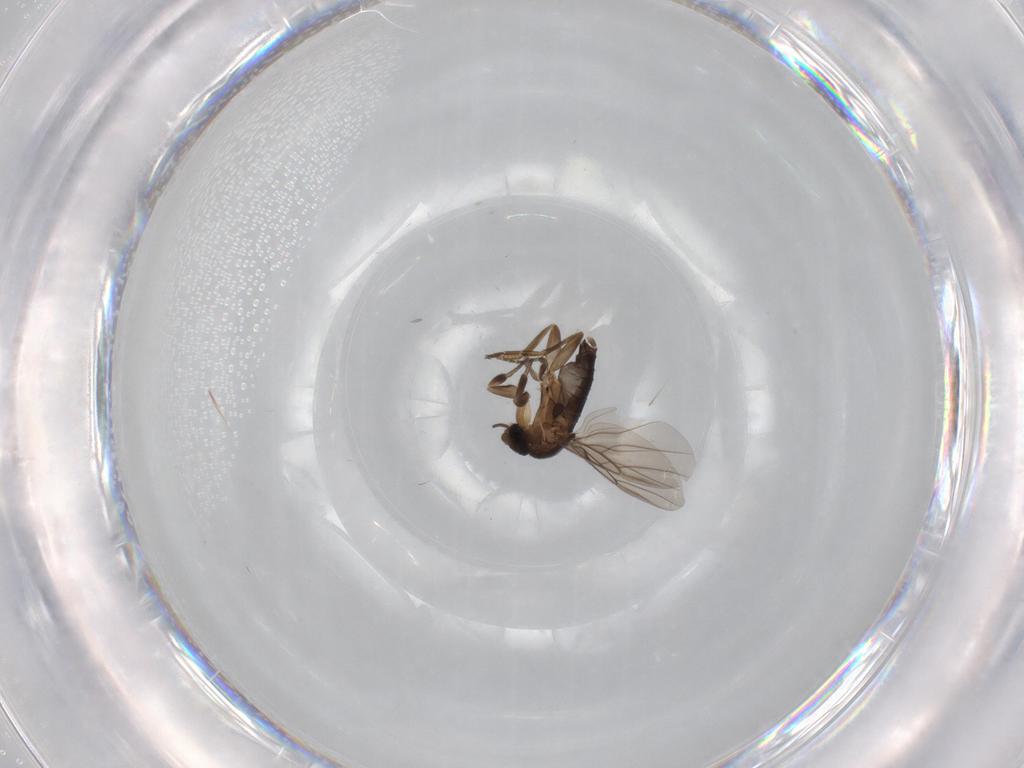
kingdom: Animalia
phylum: Arthropoda
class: Insecta
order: Diptera
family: Phoridae
